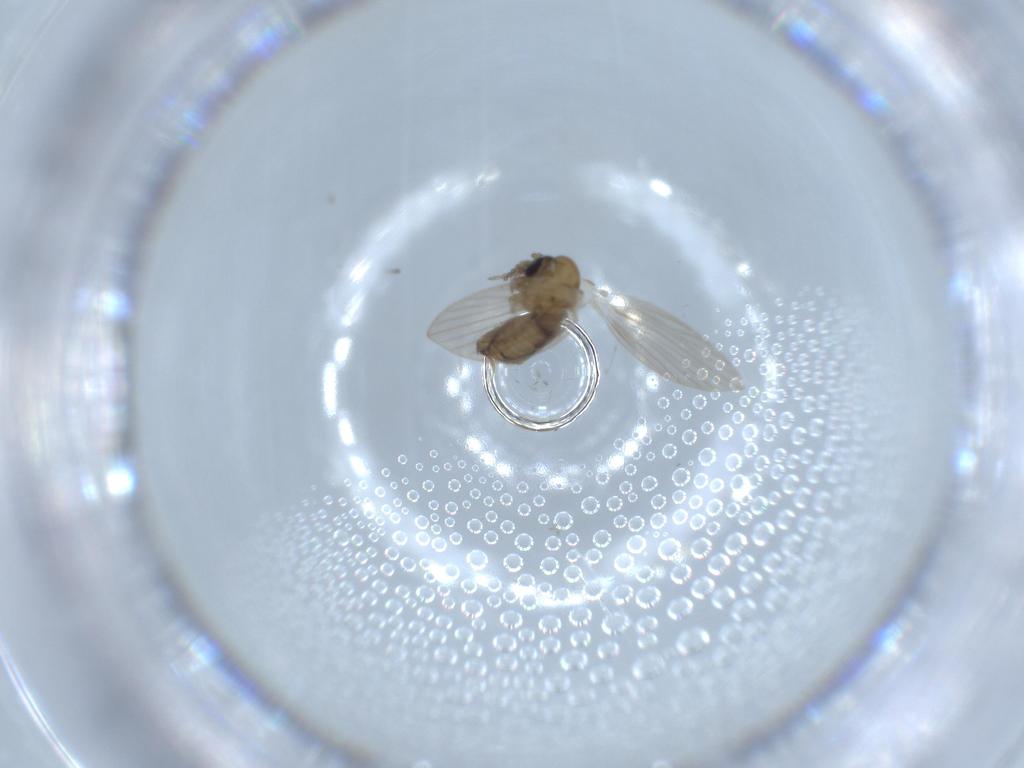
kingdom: Animalia
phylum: Arthropoda
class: Insecta
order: Diptera
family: Psychodidae
